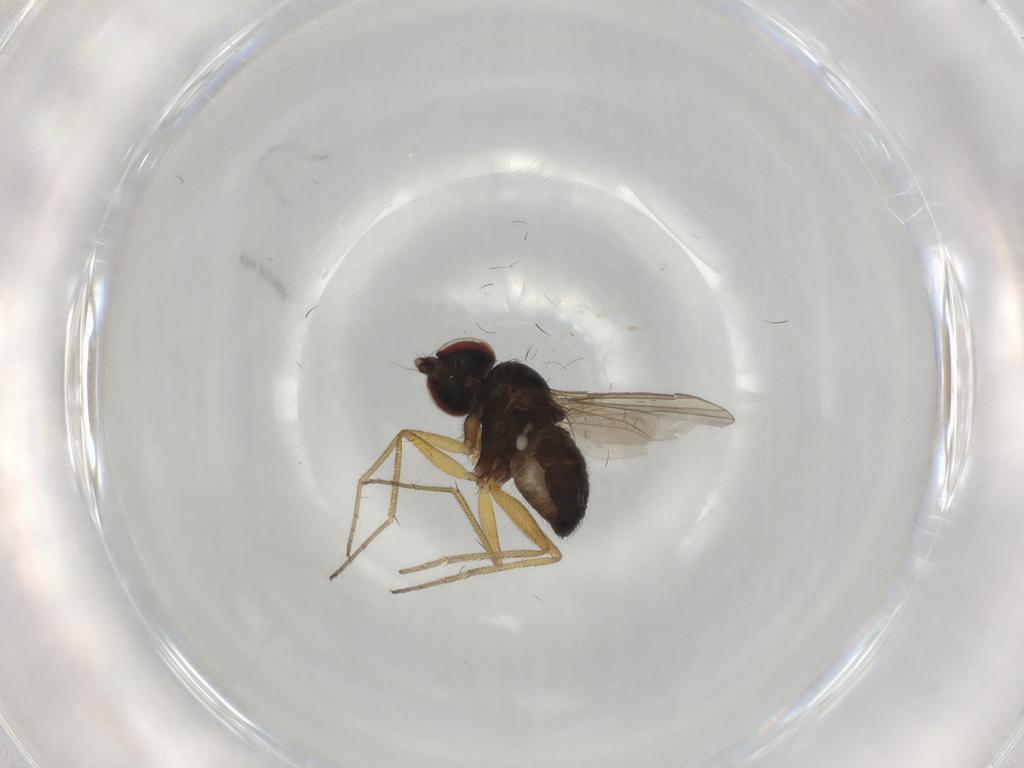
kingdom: Animalia
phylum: Arthropoda
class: Insecta
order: Diptera
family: Dolichopodidae
